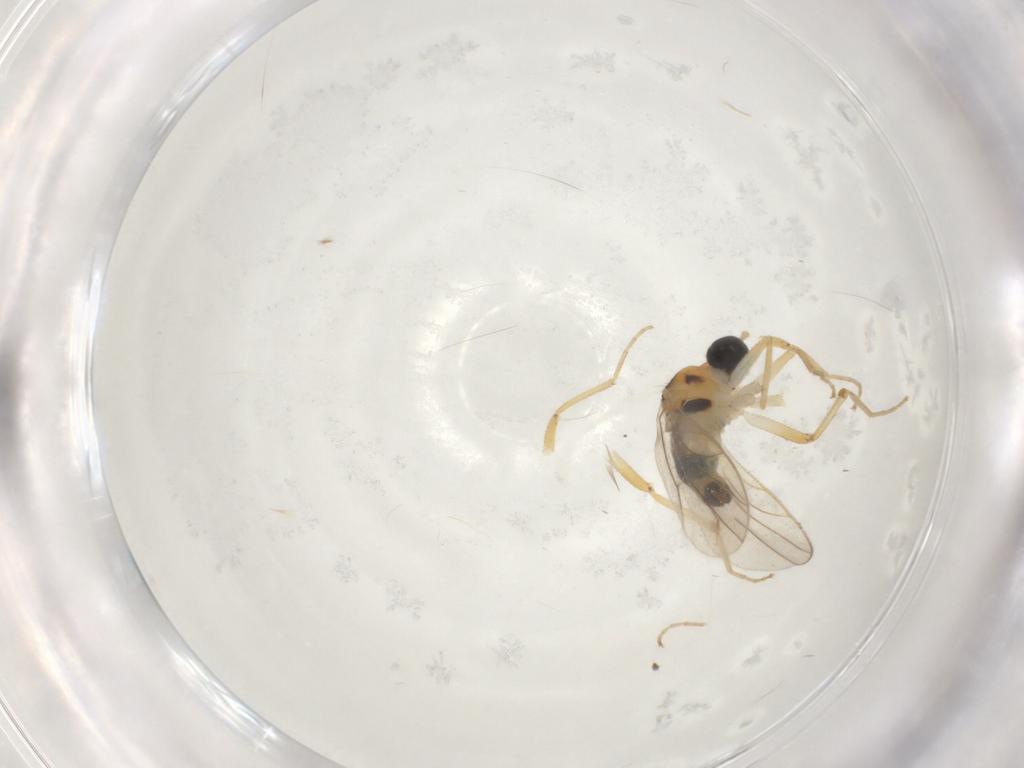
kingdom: Animalia
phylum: Arthropoda
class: Insecta
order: Diptera
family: Hybotidae
